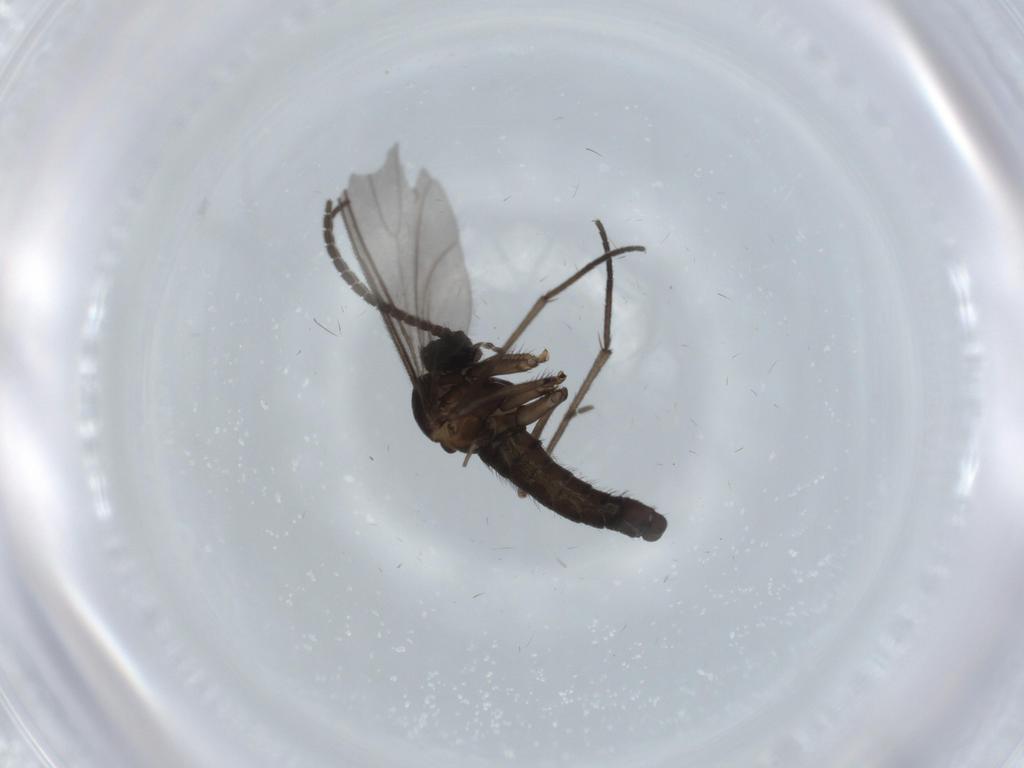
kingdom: Animalia
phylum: Arthropoda
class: Insecta
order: Diptera
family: Sciaridae
